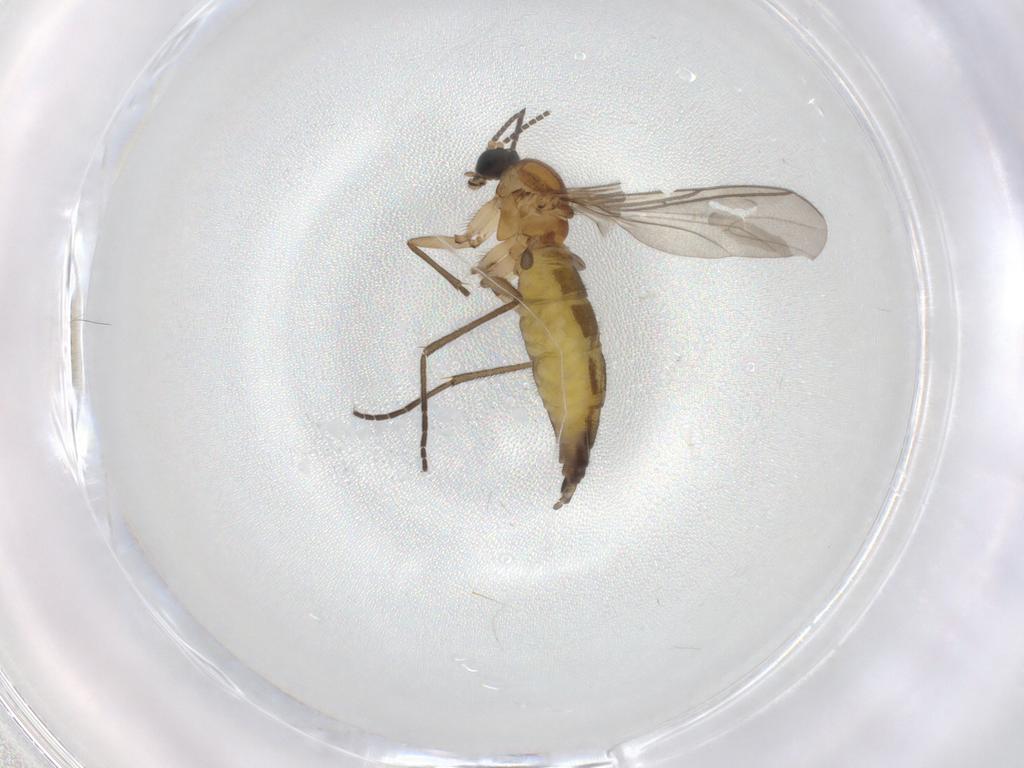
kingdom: Animalia
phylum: Arthropoda
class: Insecta
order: Diptera
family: Sciaridae
